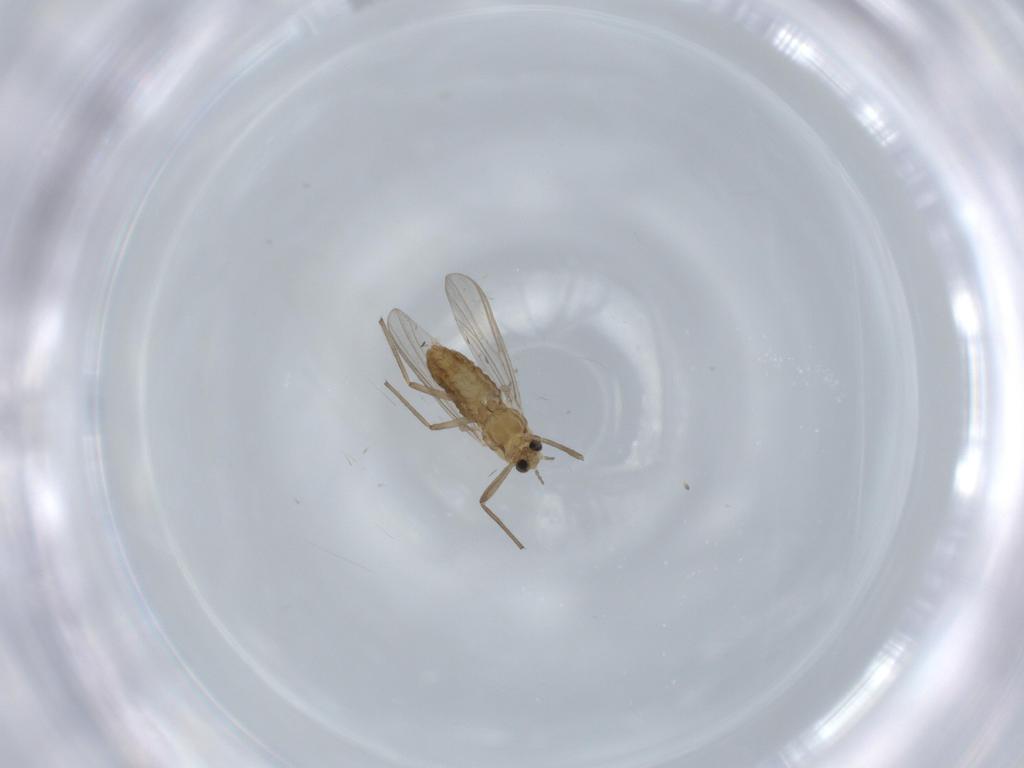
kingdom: Animalia
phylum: Arthropoda
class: Insecta
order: Diptera
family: Chironomidae
